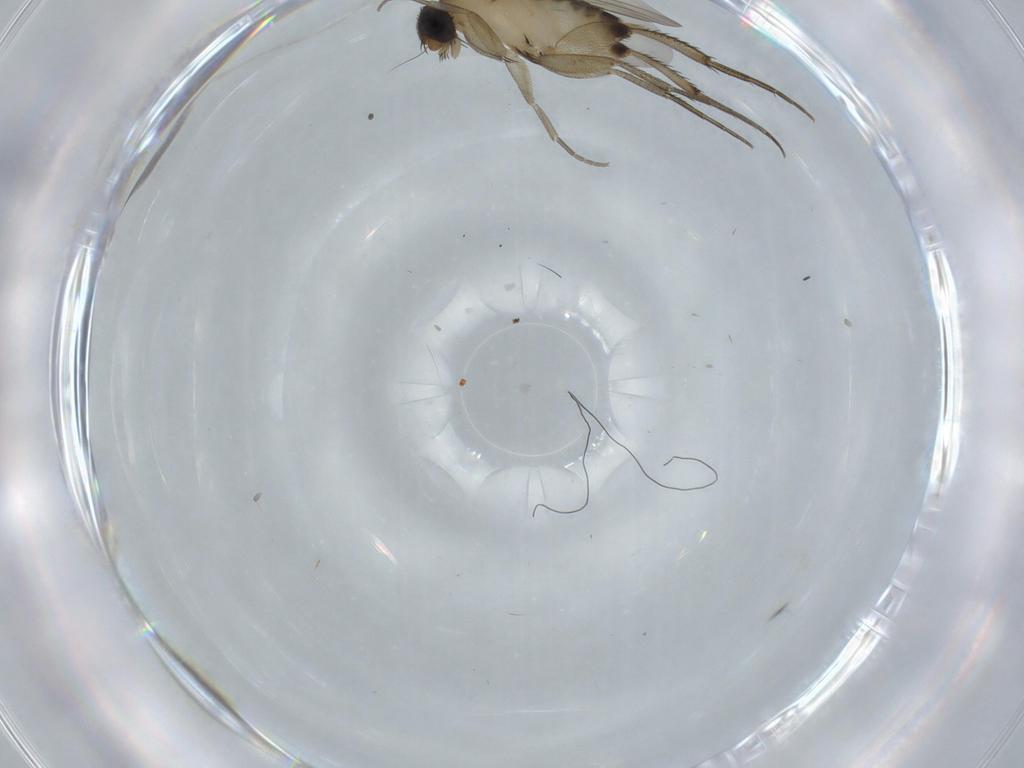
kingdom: Animalia
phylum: Arthropoda
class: Insecta
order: Diptera
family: Phoridae
